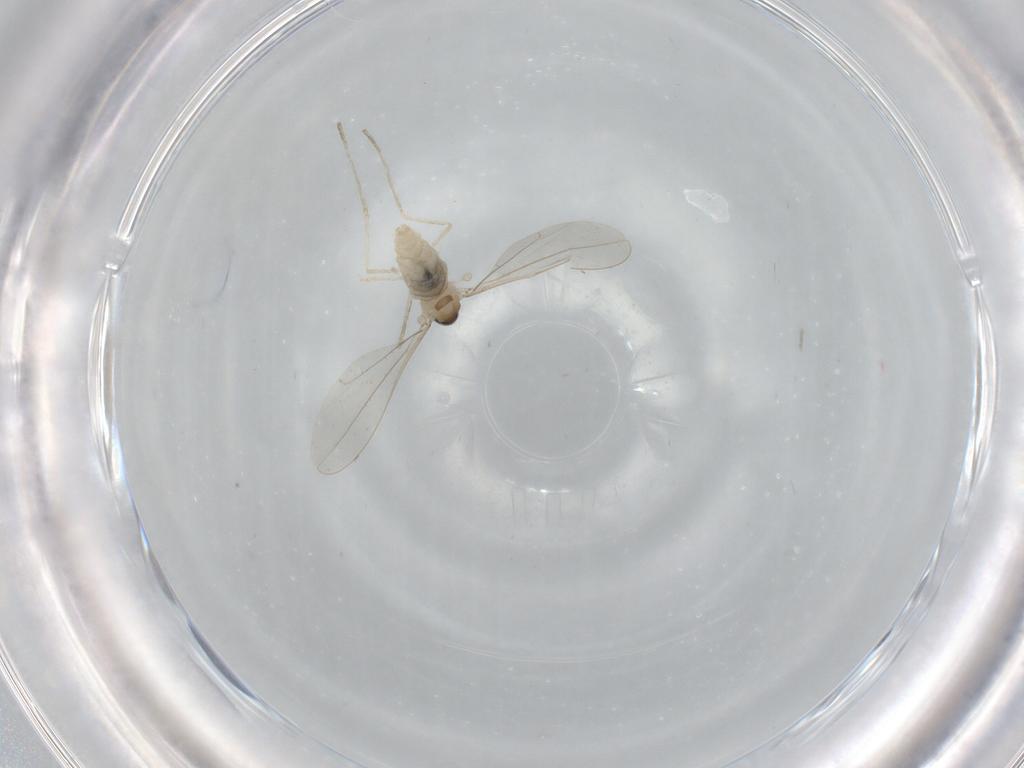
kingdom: Animalia
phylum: Arthropoda
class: Insecta
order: Diptera
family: Cecidomyiidae
